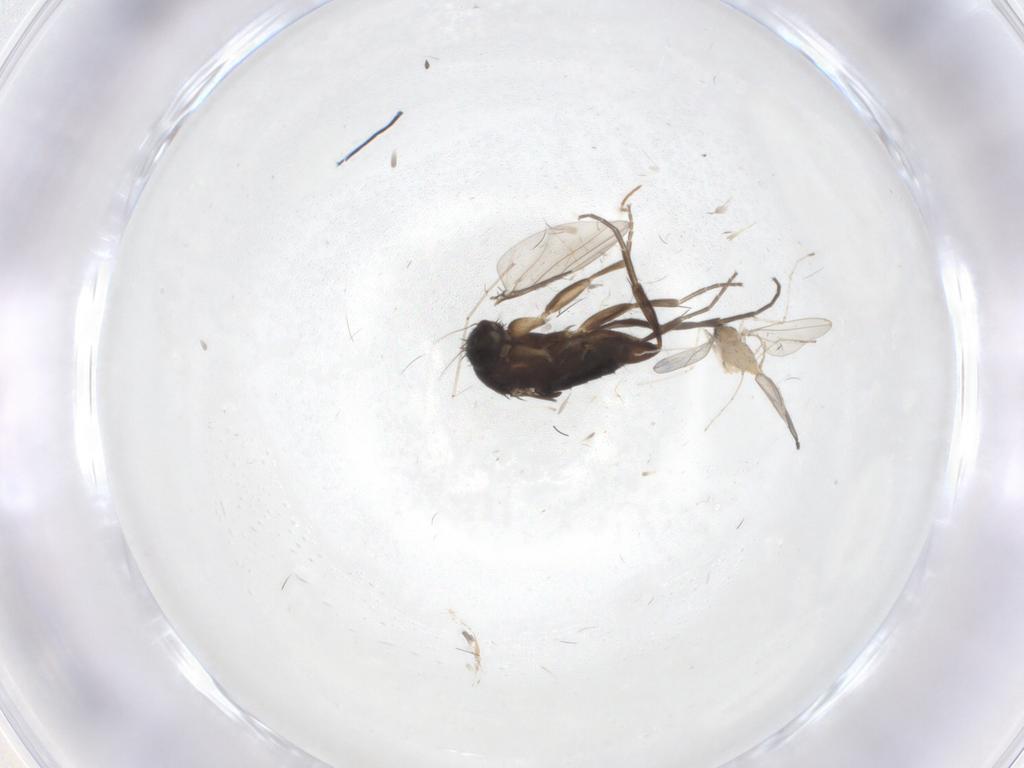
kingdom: Animalia
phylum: Arthropoda
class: Insecta
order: Diptera
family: Phoridae
